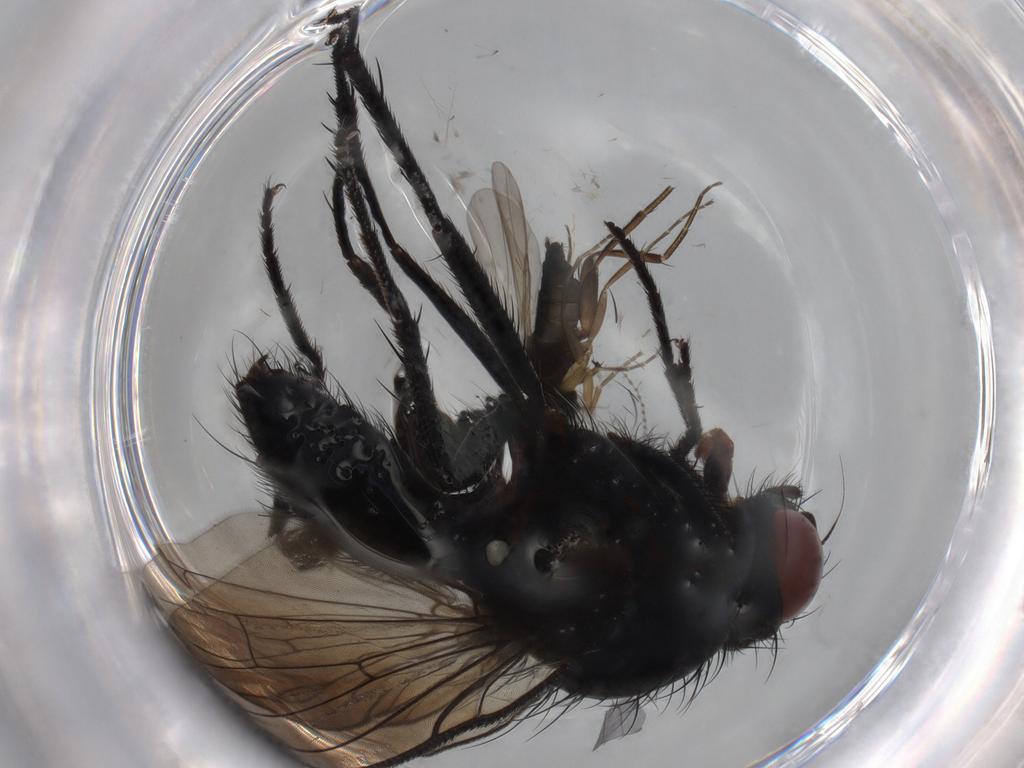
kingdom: Animalia
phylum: Arthropoda
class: Insecta
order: Diptera
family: Anthomyiidae
